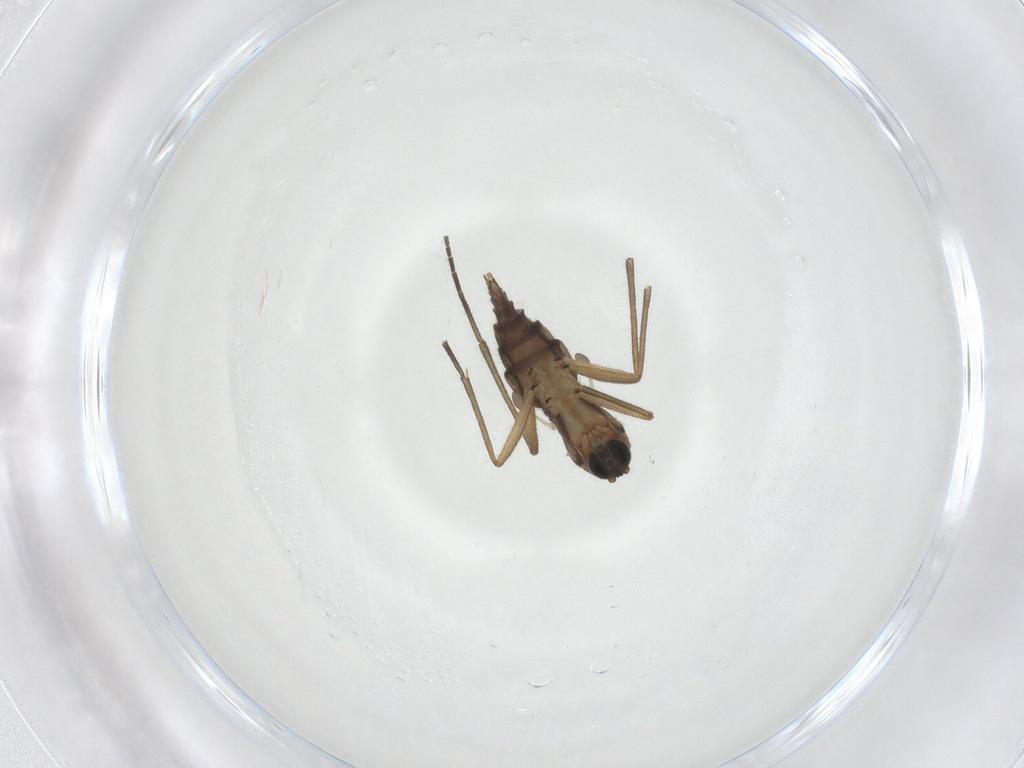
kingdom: Animalia
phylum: Arthropoda
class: Insecta
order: Diptera
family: Sciaridae
